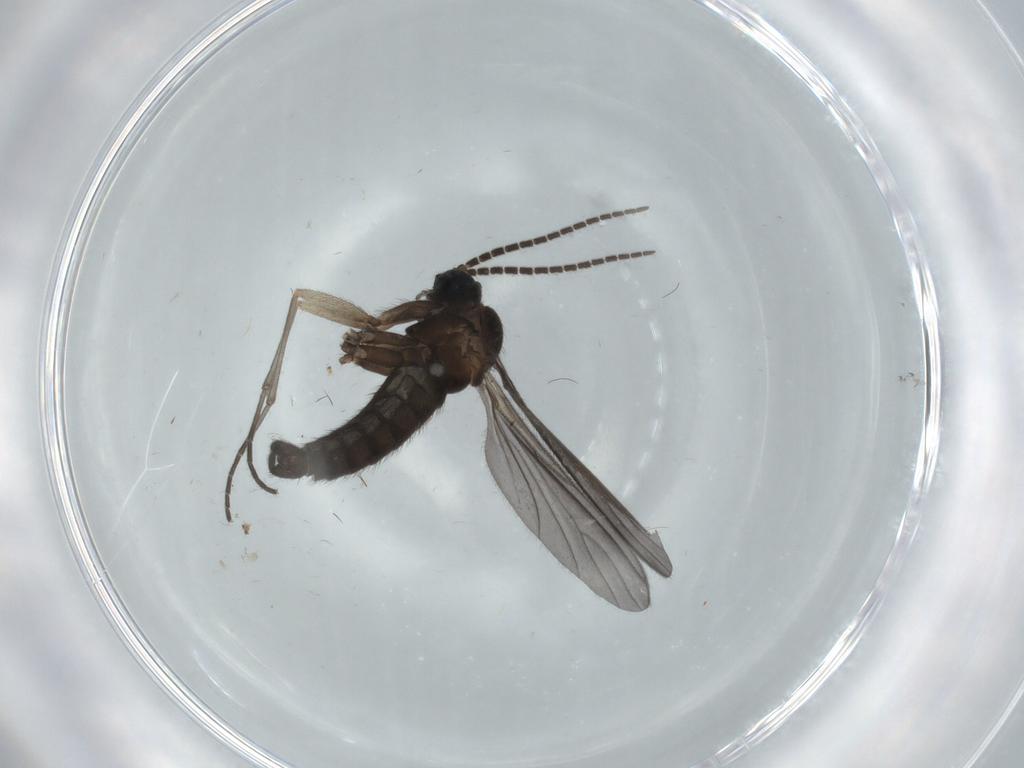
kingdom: Animalia
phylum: Arthropoda
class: Insecta
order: Diptera
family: Sciaridae
